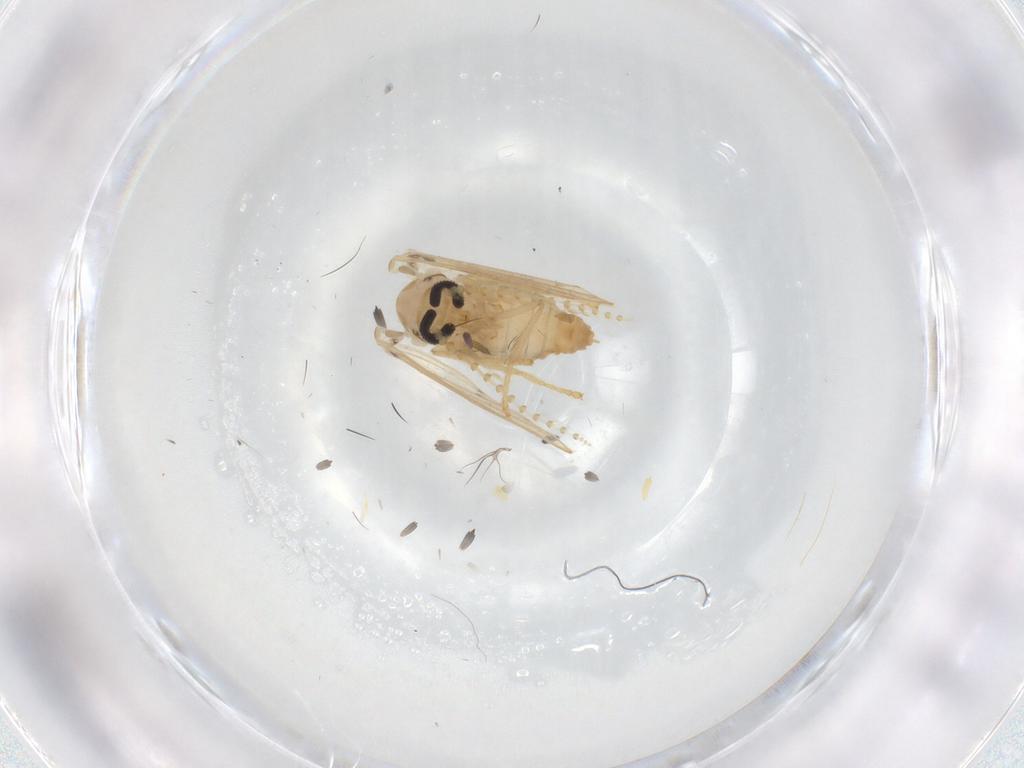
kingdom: Animalia
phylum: Arthropoda
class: Insecta
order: Diptera
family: Psychodidae
